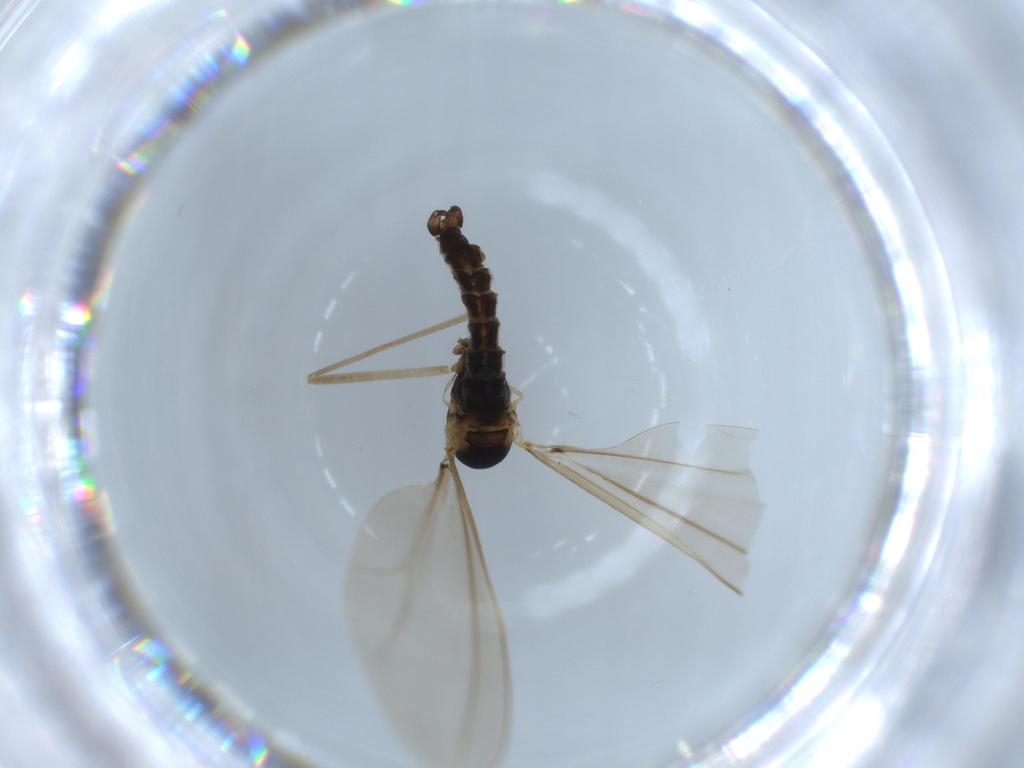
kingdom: Animalia
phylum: Arthropoda
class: Insecta
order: Diptera
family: Cecidomyiidae
